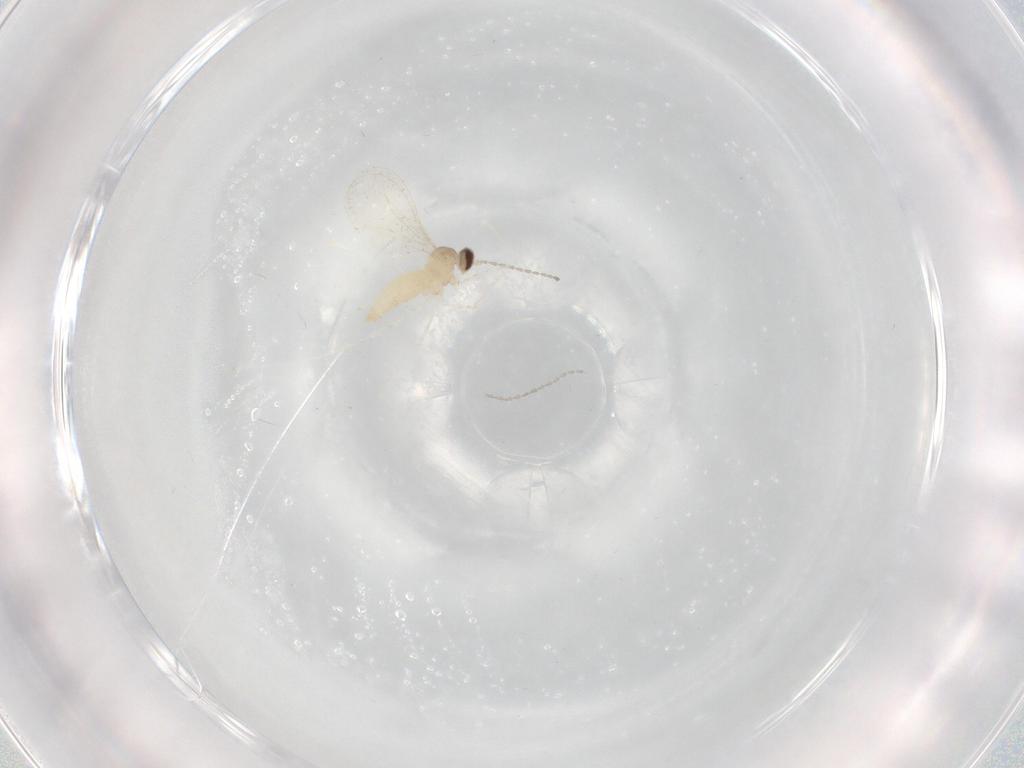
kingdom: Animalia
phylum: Arthropoda
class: Insecta
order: Diptera
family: Cecidomyiidae
